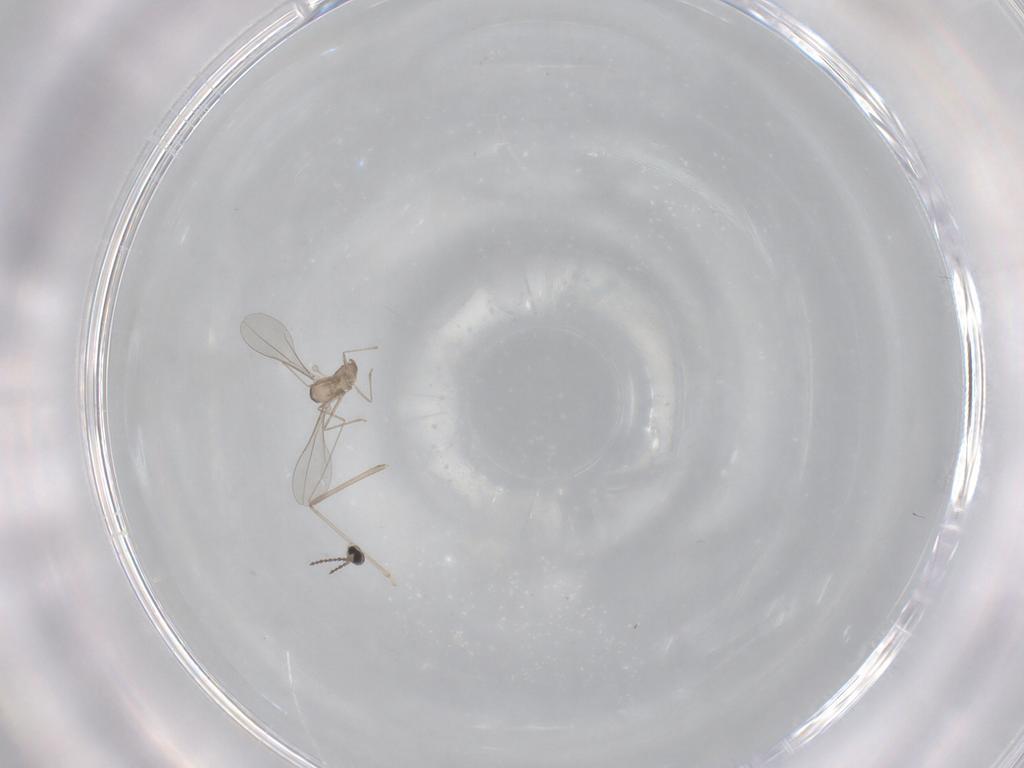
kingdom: Animalia
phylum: Arthropoda
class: Insecta
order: Diptera
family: Cecidomyiidae
